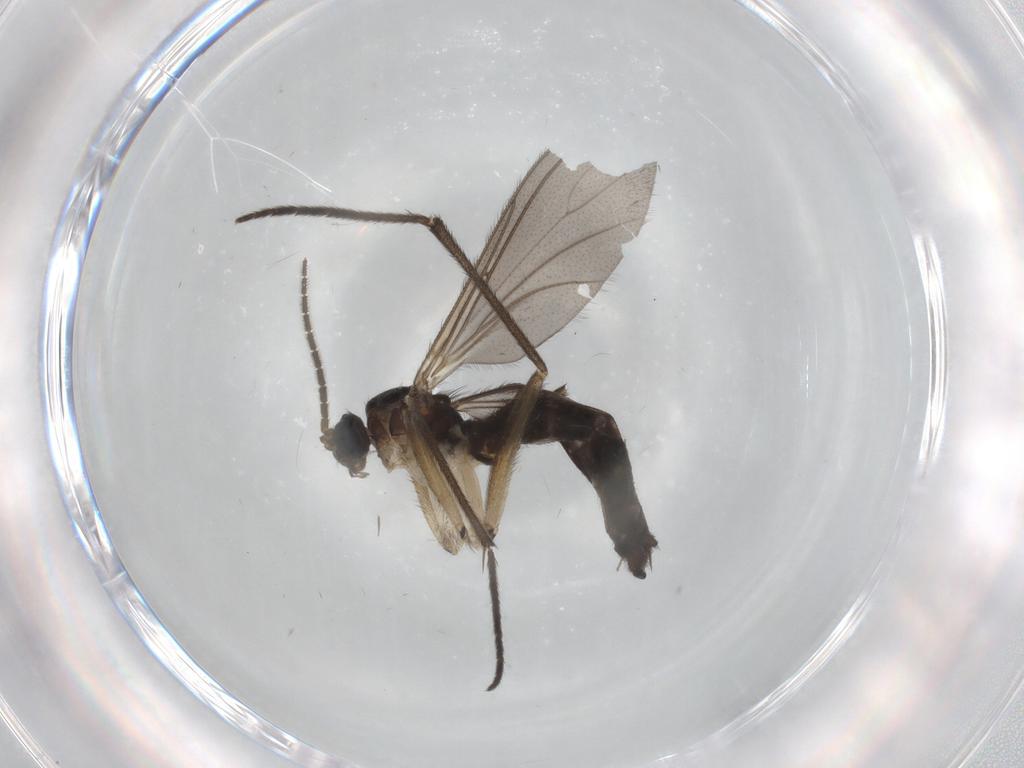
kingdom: Animalia
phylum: Arthropoda
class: Insecta
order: Diptera
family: Sciaridae
